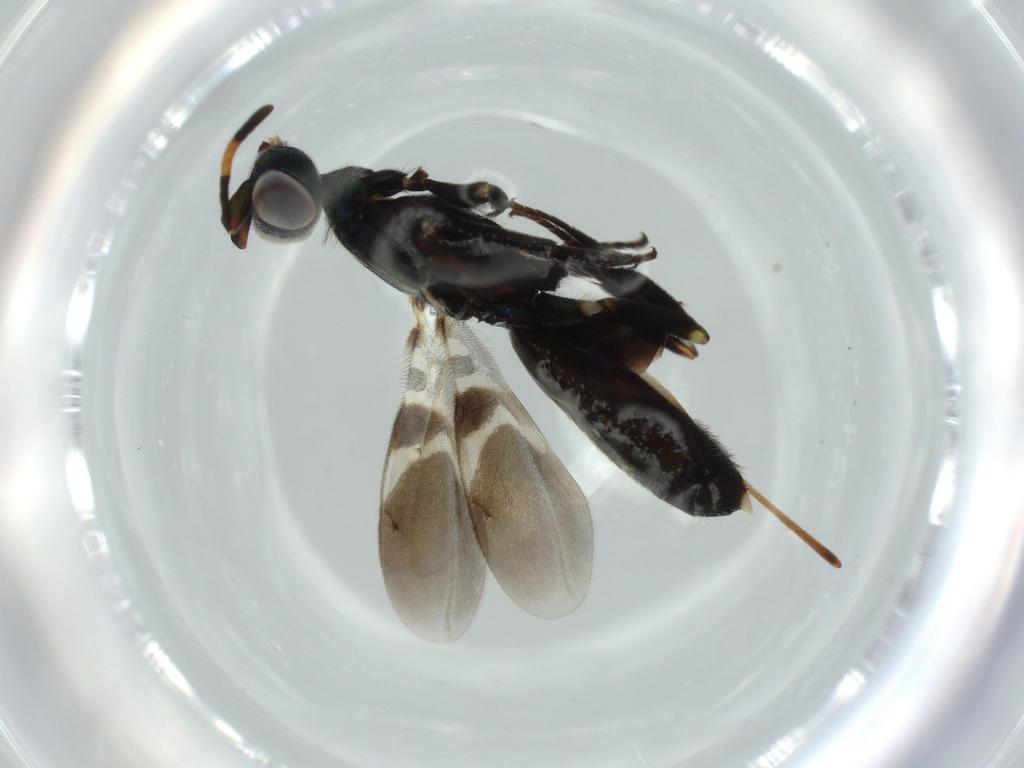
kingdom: Animalia
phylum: Arthropoda
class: Insecta
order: Hymenoptera
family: Eupelmidae
